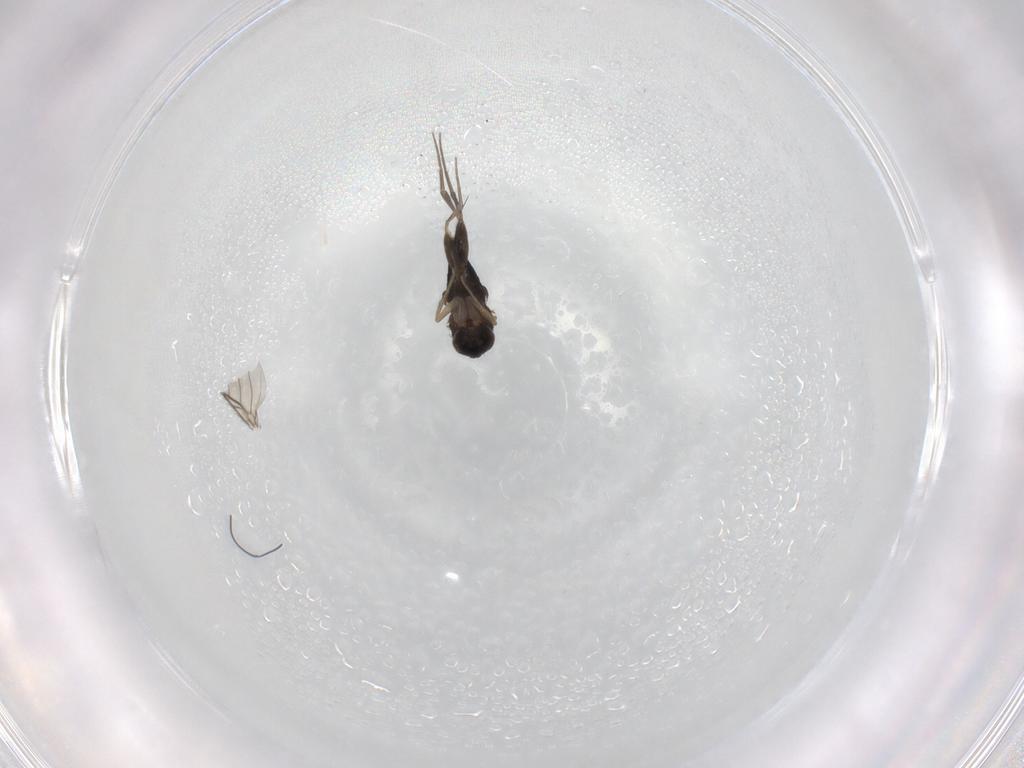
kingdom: Animalia
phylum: Arthropoda
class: Insecta
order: Diptera
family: Phoridae
